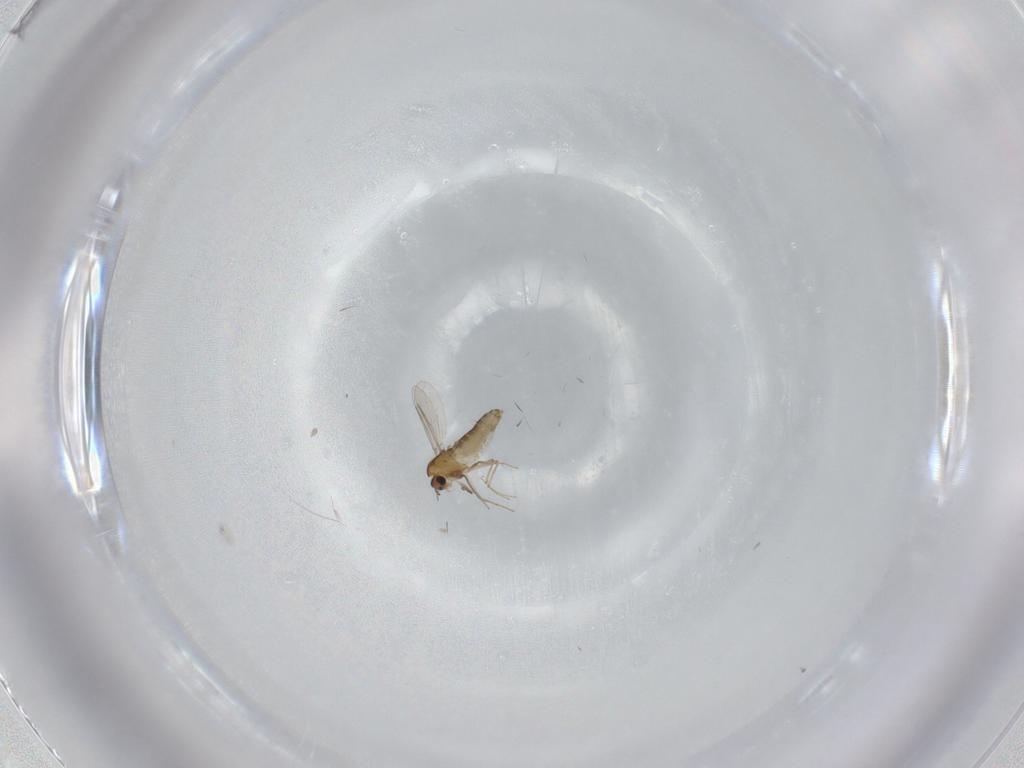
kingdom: Animalia
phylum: Arthropoda
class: Insecta
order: Diptera
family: Chironomidae
